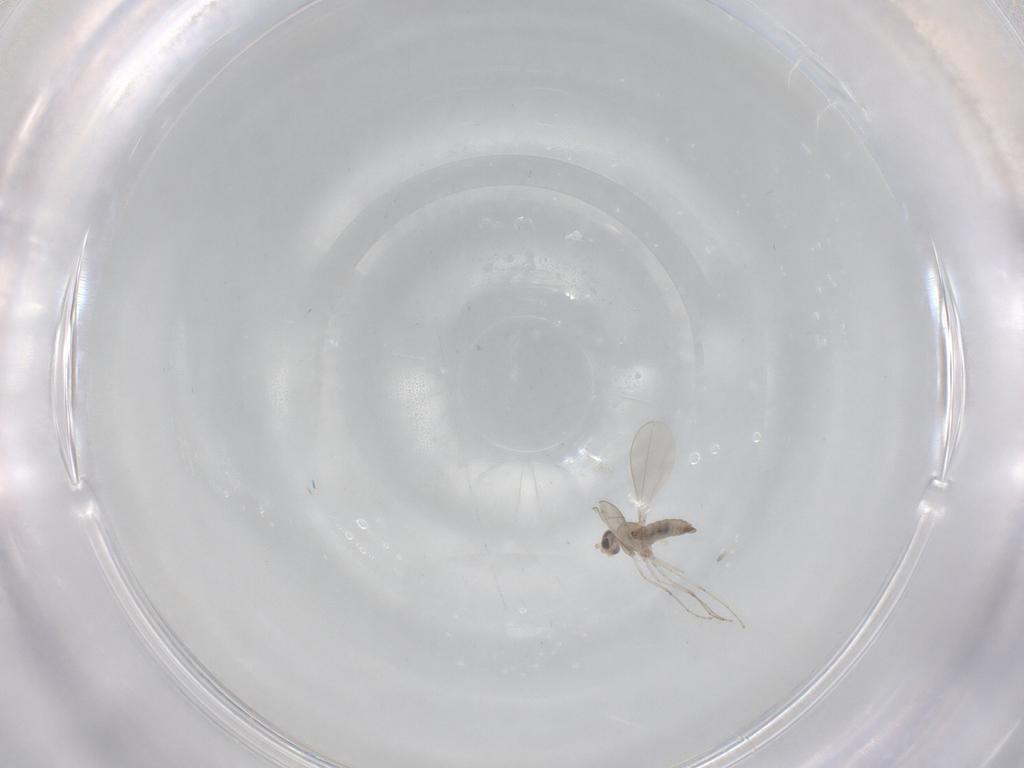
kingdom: Animalia
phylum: Arthropoda
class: Insecta
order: Diptera
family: Cecidomyiidae
